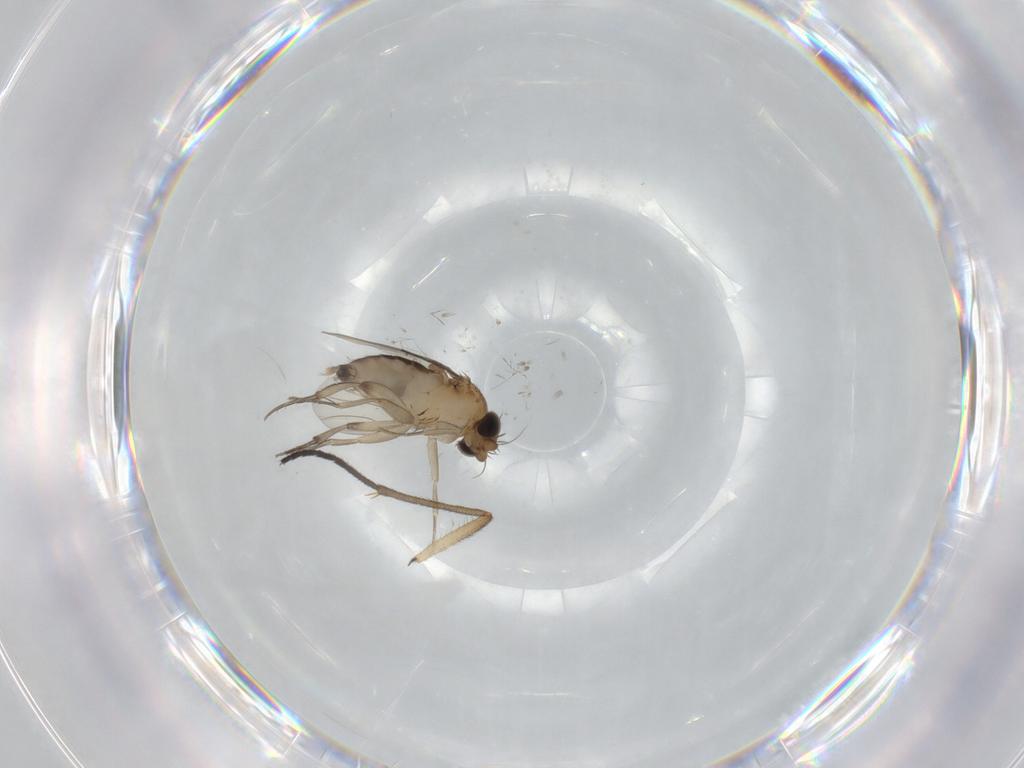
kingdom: Animalia
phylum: Arthropoda
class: Insecta
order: Diptera
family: Phoridae
